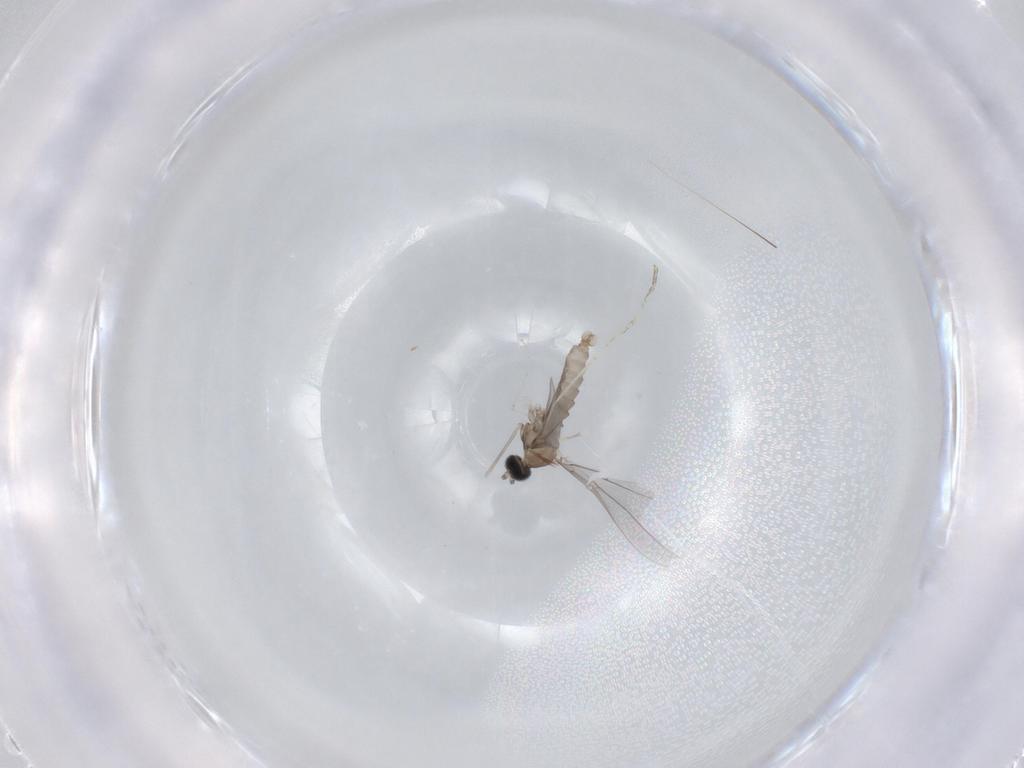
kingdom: Animalia
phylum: Arthropoda
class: Insecta
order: Diptera
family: Cecidomyiidae
